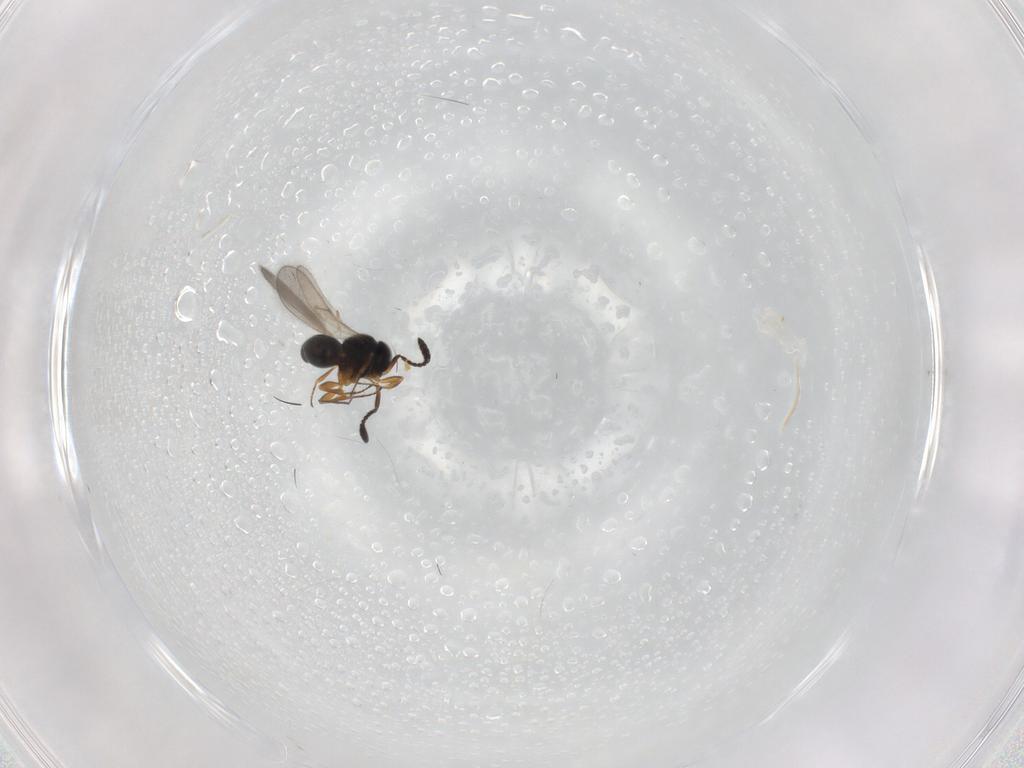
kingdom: Animalia
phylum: Arthropoda
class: Insecta
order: Hymenoptera
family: Scelionidae
